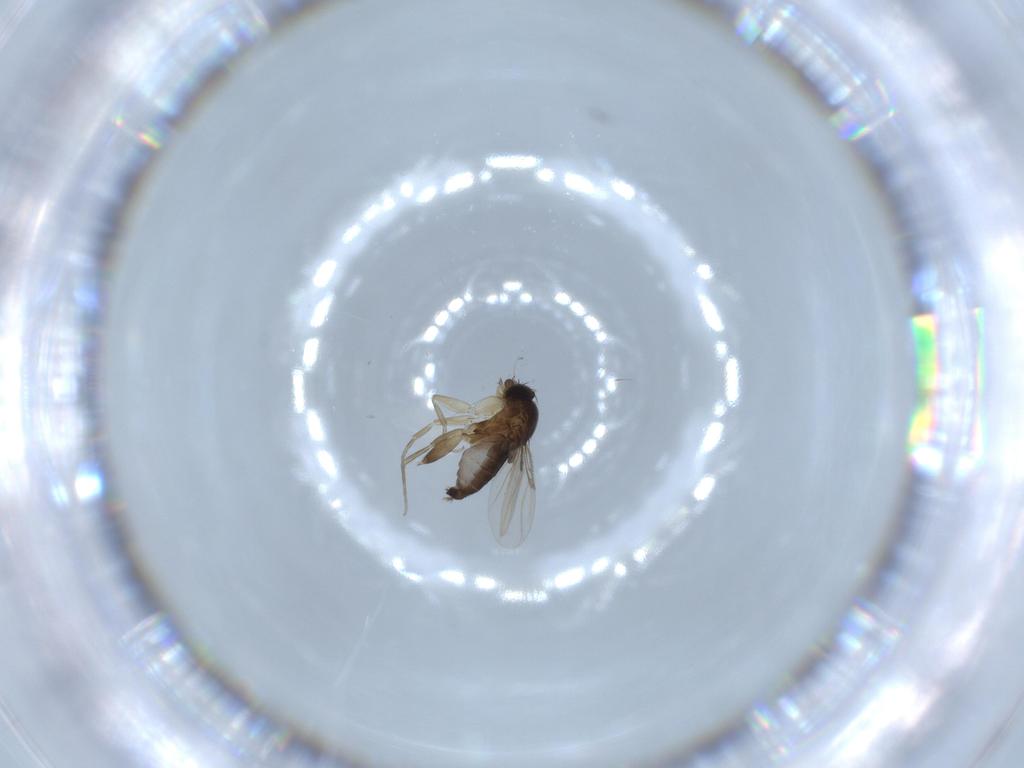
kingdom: Animalia
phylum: Arthropoda
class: Insecta
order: Diptera
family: Phoridae
